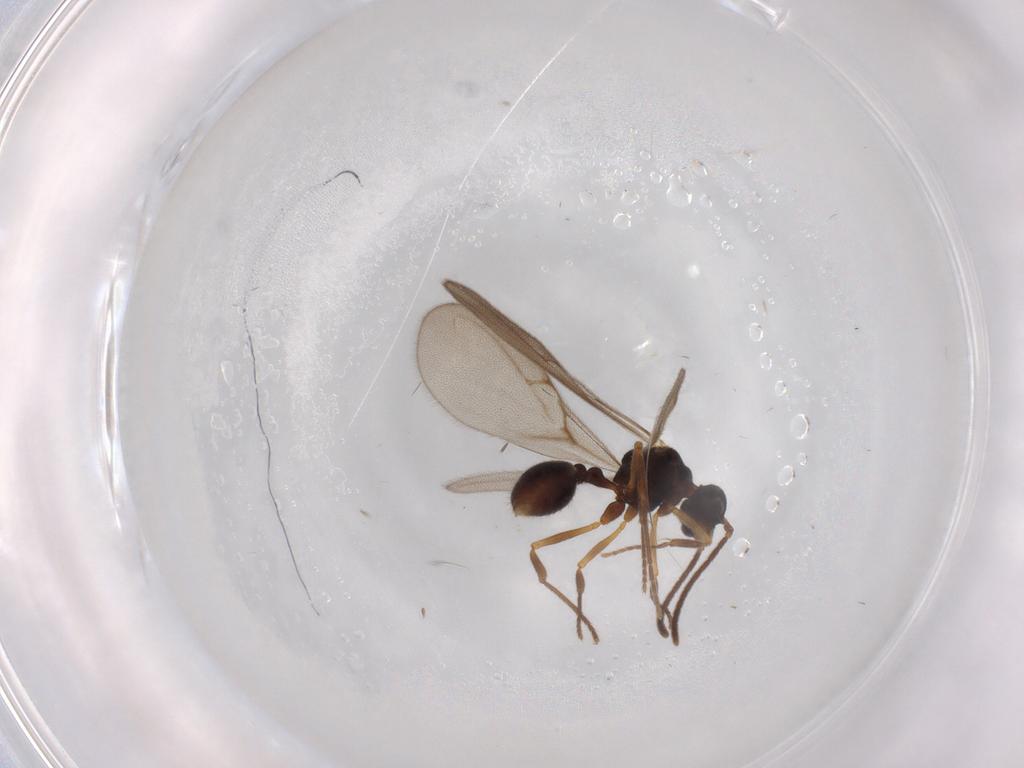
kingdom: Animalia
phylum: Arthropoda
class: Insecta
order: Hymenoptera
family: Formicidae
